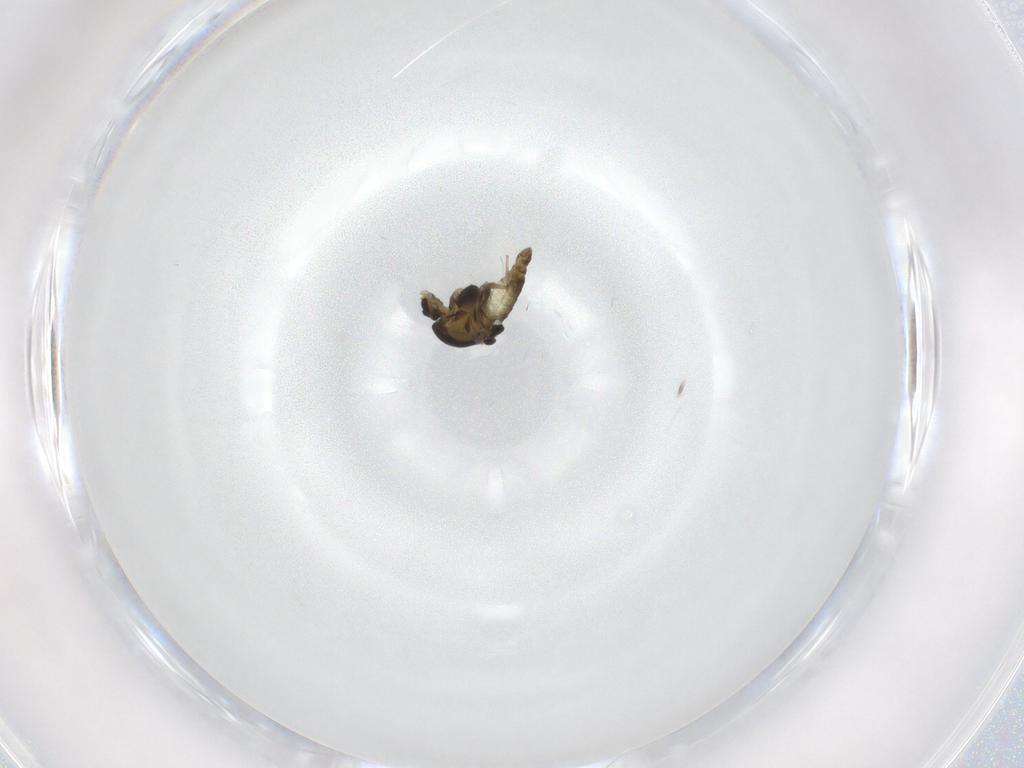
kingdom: Animalia
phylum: Arthropoda
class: Insecta
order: Diptera
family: Chironomidae
